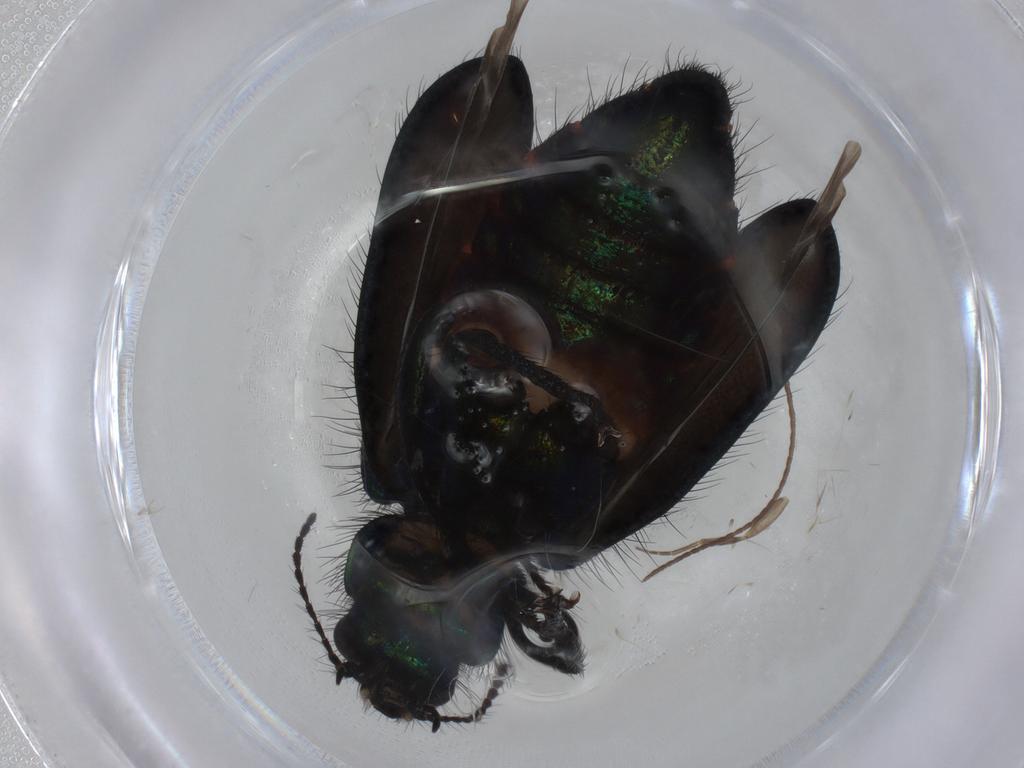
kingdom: Animalia
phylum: Arthropoda
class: Insecta
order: Coleoptera
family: Melyridae
